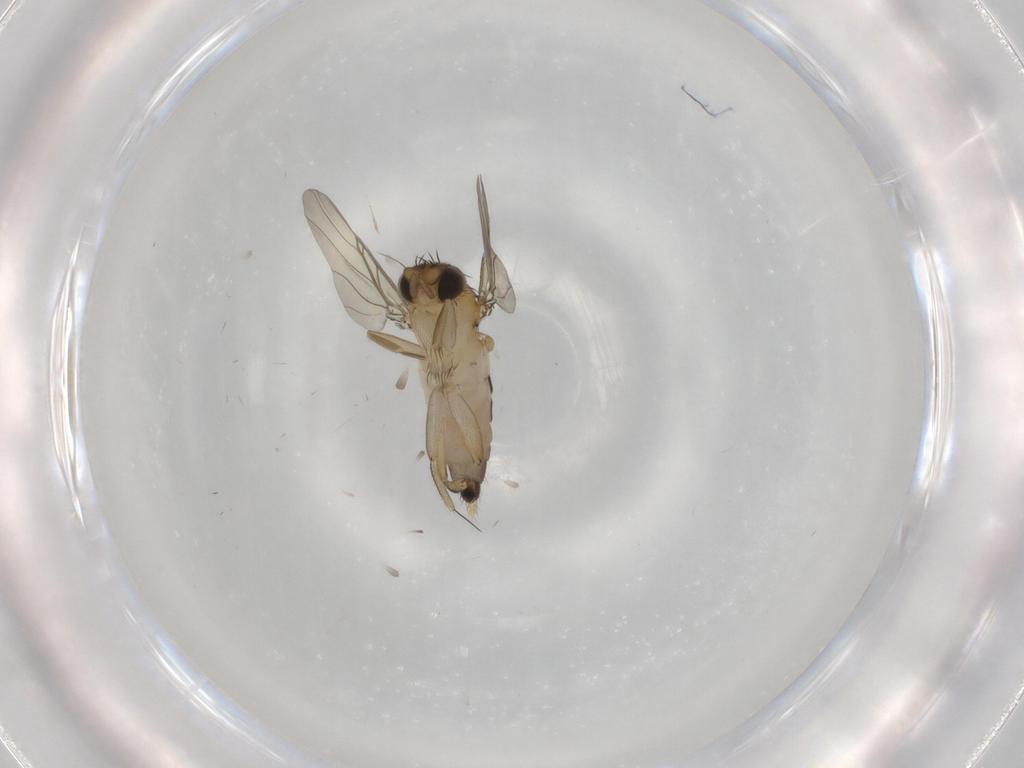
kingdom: Animalia
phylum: Arthropoda
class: Insecta
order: Diptera
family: Phoridae
